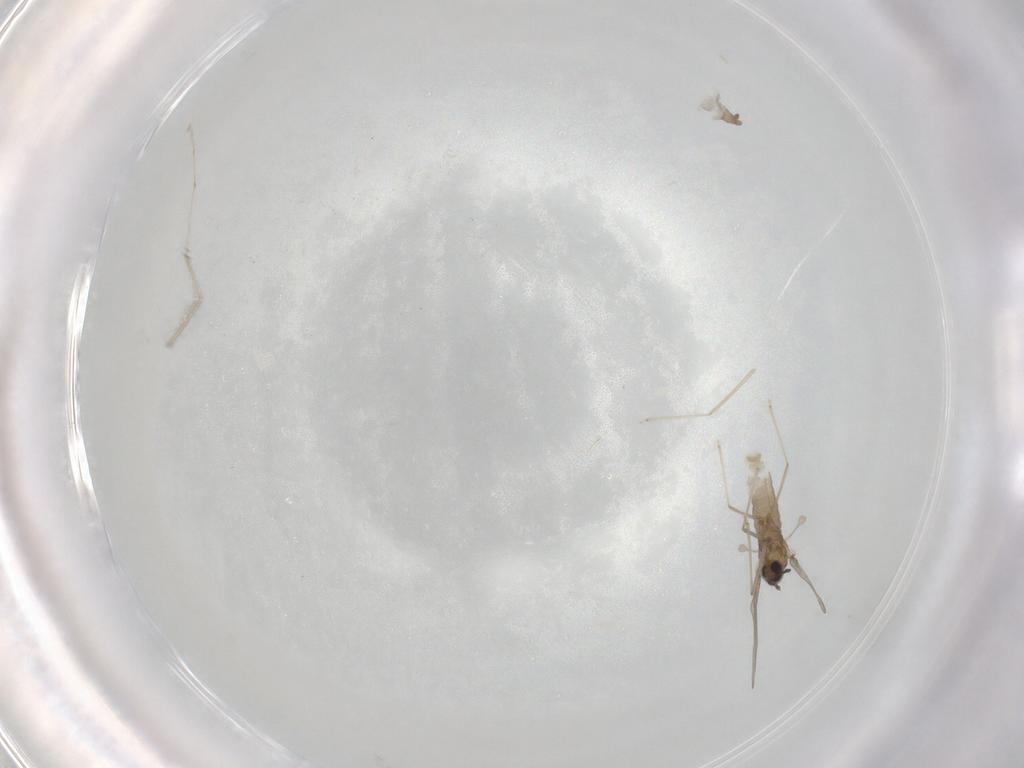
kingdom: Animalia
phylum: Arthropoda
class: Insecta
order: Diptera
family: Cecidomyiidae
